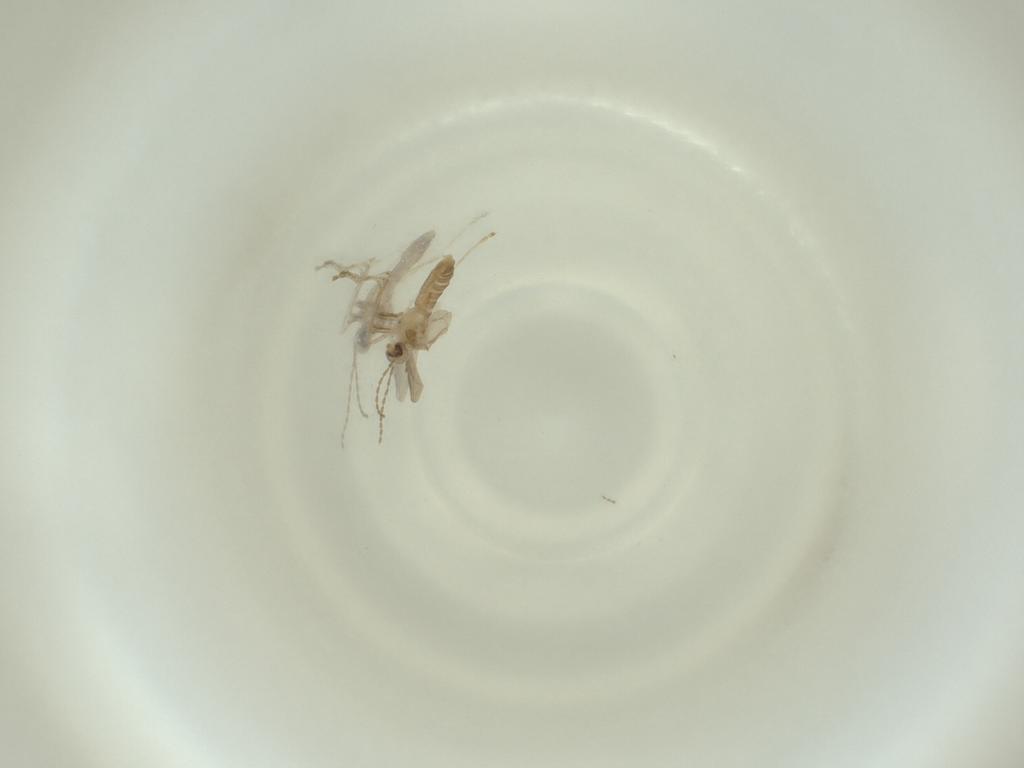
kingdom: Animalia
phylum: Arthropoda
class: Insecta
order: Diptera
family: Cecidomyiidae
